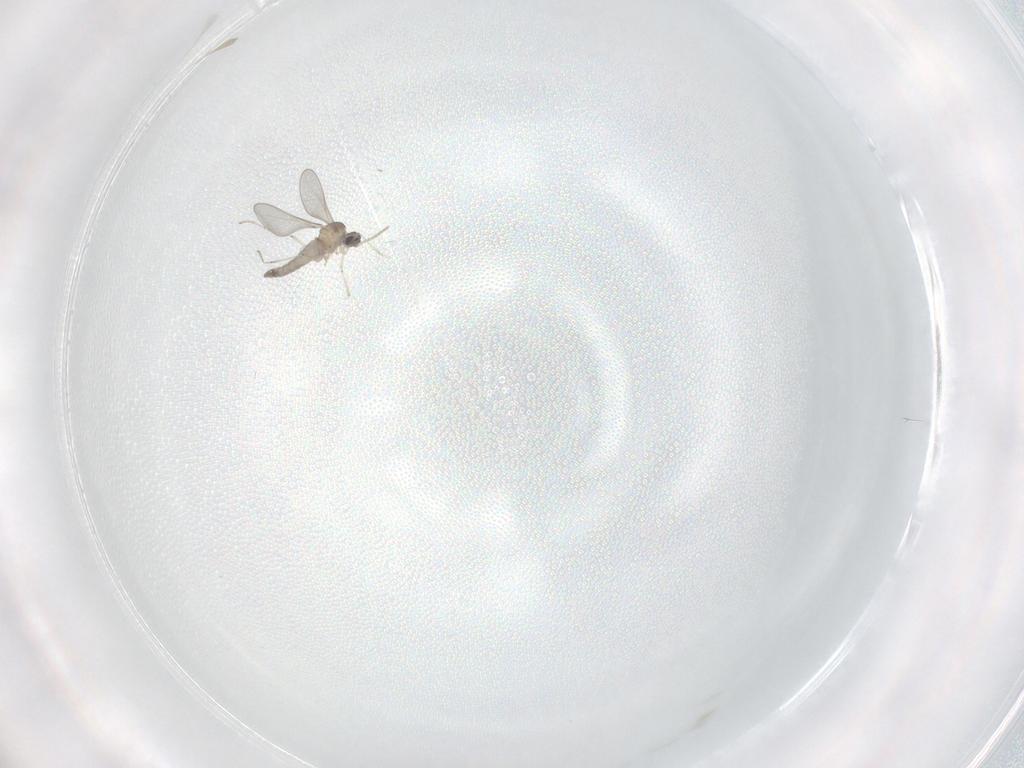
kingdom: Animalia
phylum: Arthropoda
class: Insecta
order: Diptera
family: Cecidomyiidae
